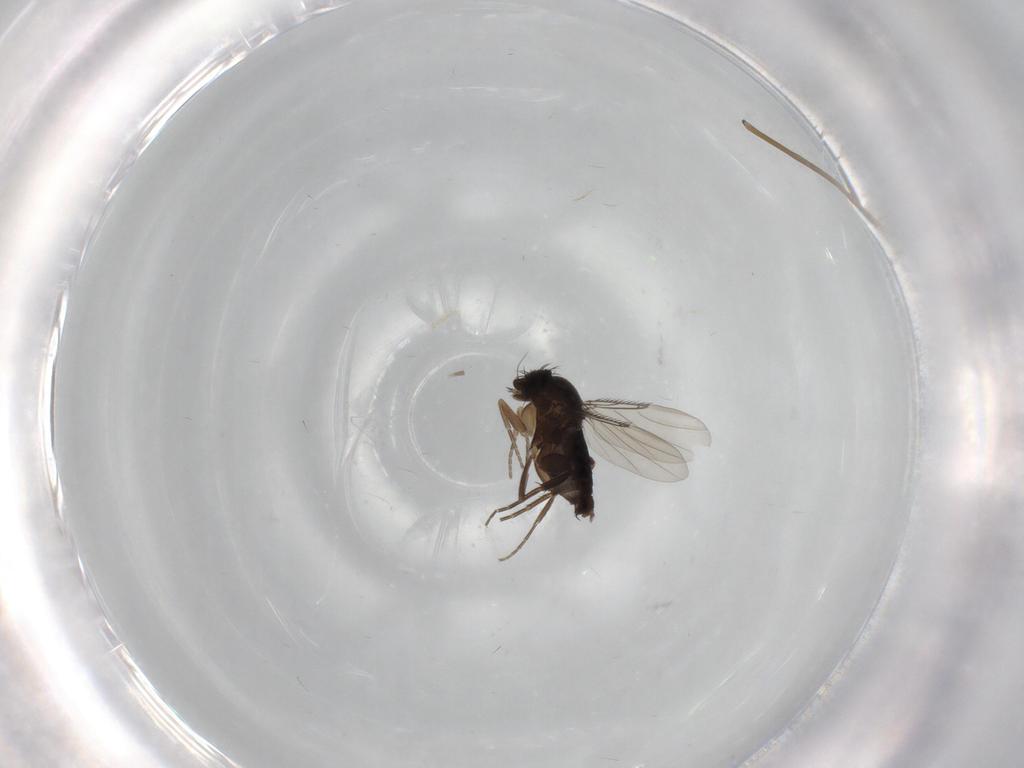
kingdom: Animalia
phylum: Arthropoda
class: Insecta
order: Diptera
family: Limoniidae
